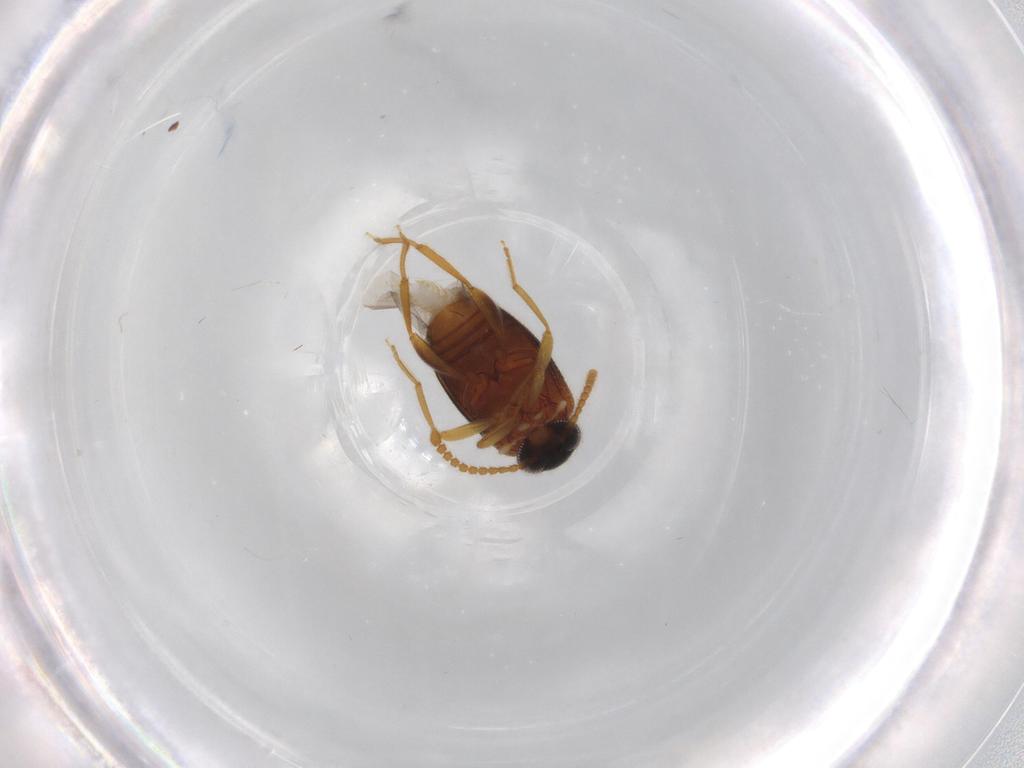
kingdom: Animalia
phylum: Arthropoda
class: Insecta
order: Coleoptera
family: Aderidae
